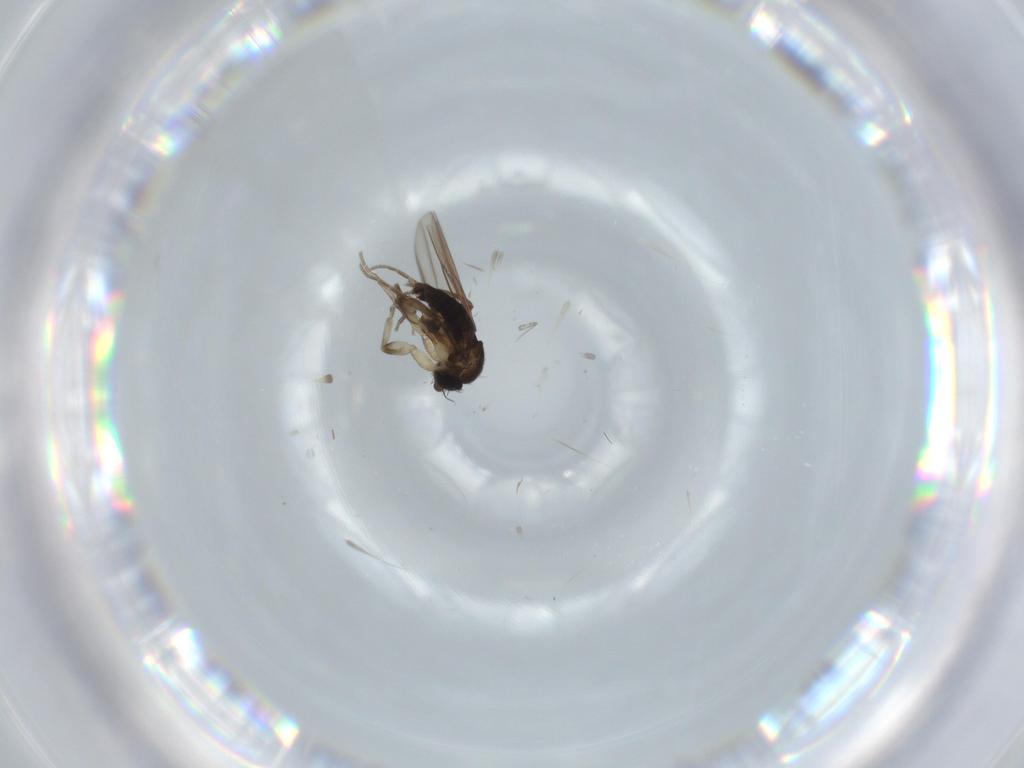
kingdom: Animalia
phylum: Arthropoda
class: Insecta
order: Diptera
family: Phoridae
